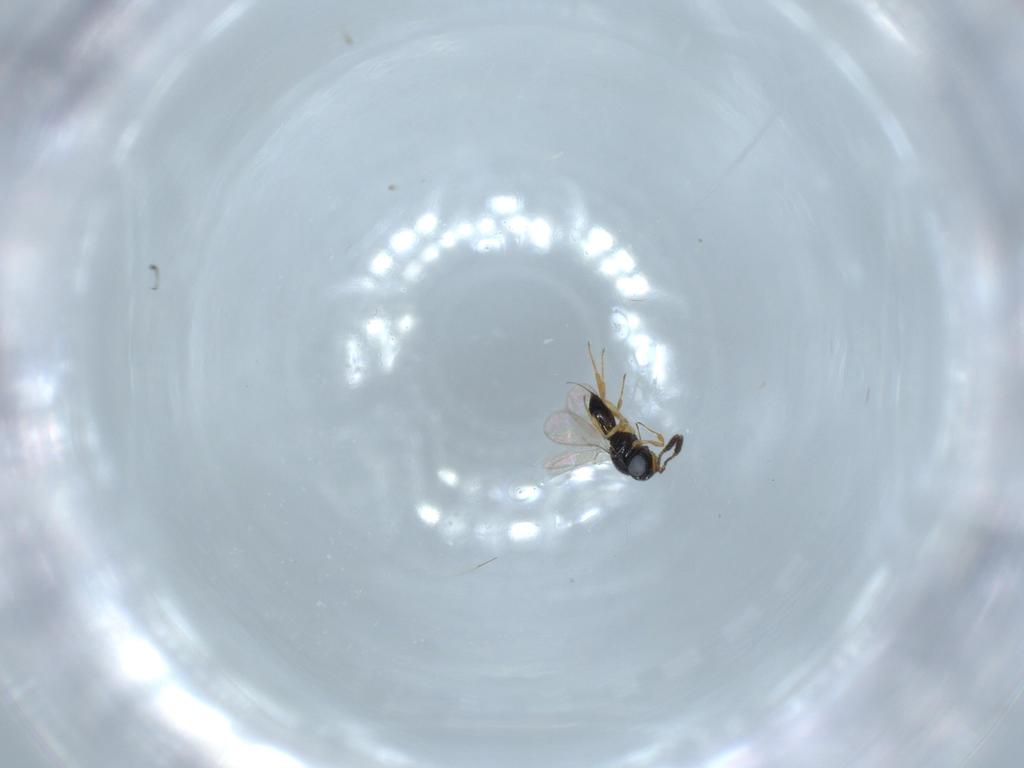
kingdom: Animalia
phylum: Arthropoda
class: Insecta
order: Hymenoptera
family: Scelionidae
